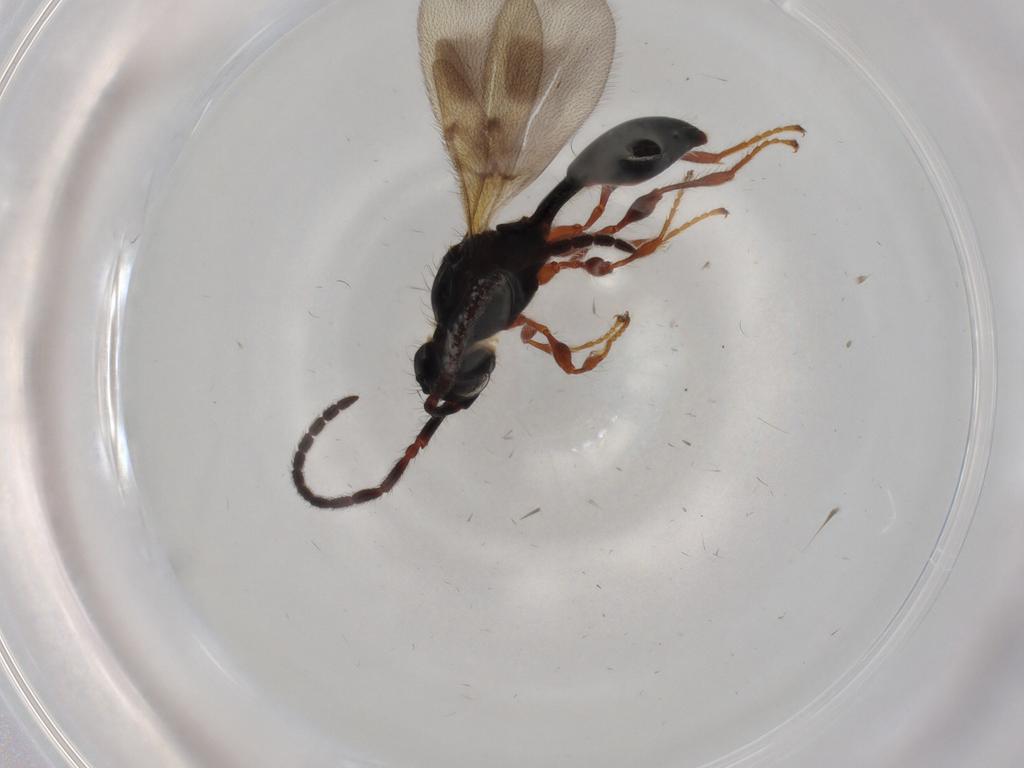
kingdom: Animalia
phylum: Arthropoda
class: Insecta
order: Hymenoptera
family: Diapriidae
